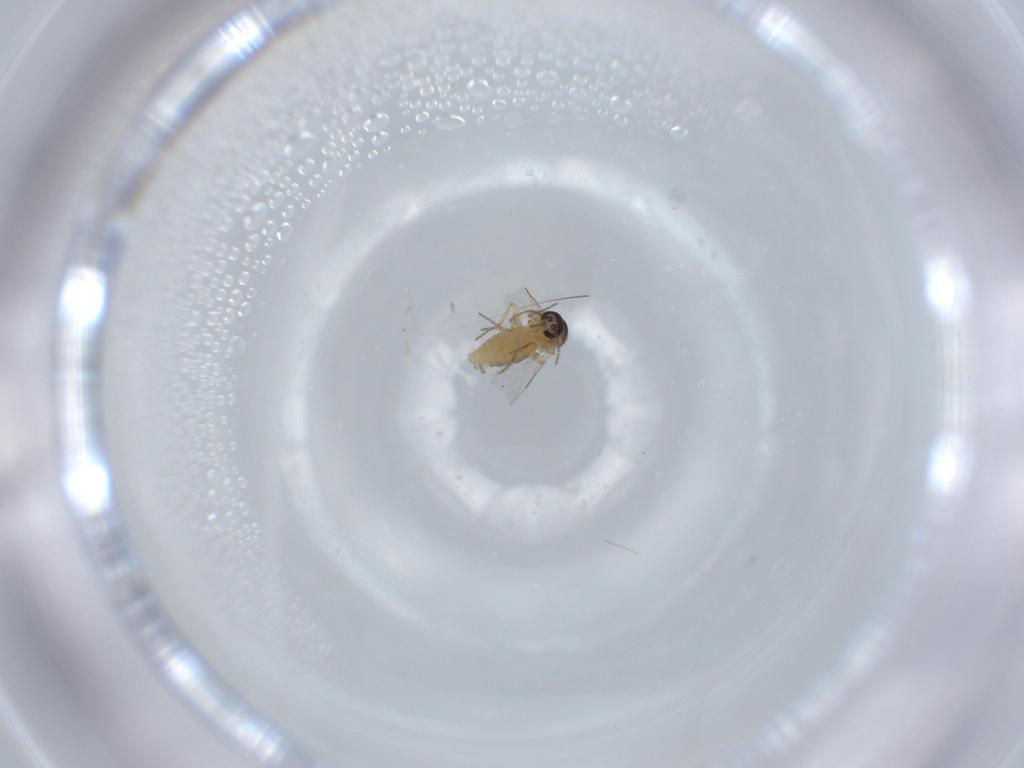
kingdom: Animalia
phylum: Arthropoda
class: Insecta
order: Diptera
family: Ceratopogonidae
